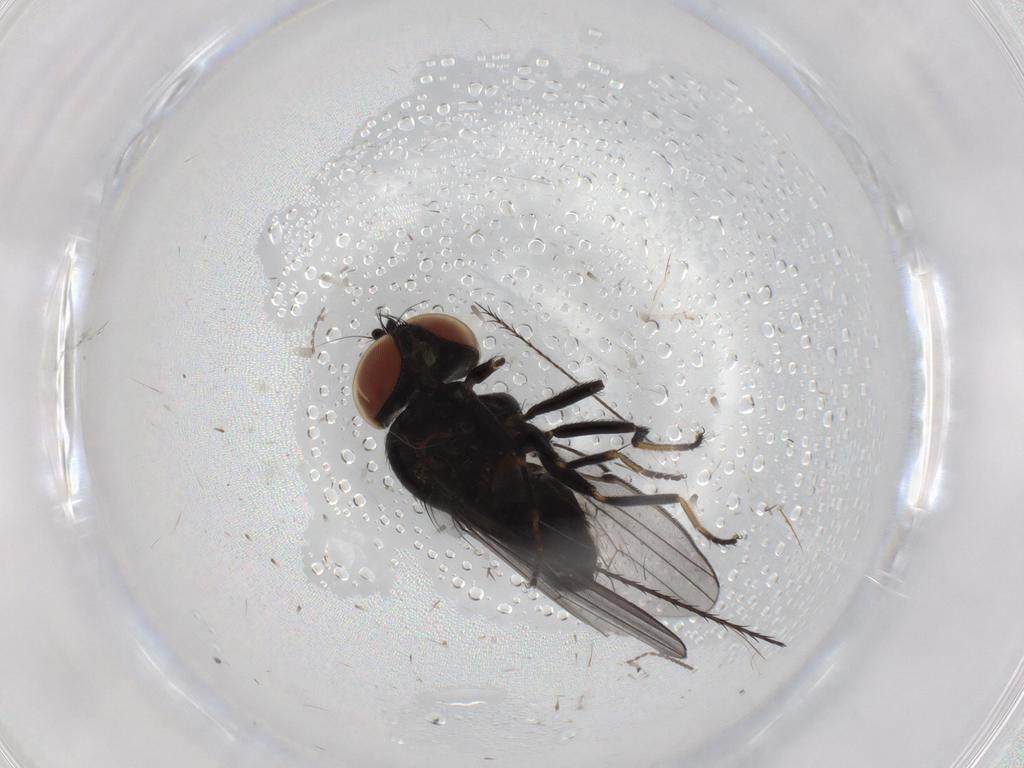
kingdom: Animalia
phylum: Arthropoda
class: Insecta
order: Diptera
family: Milichiidae
